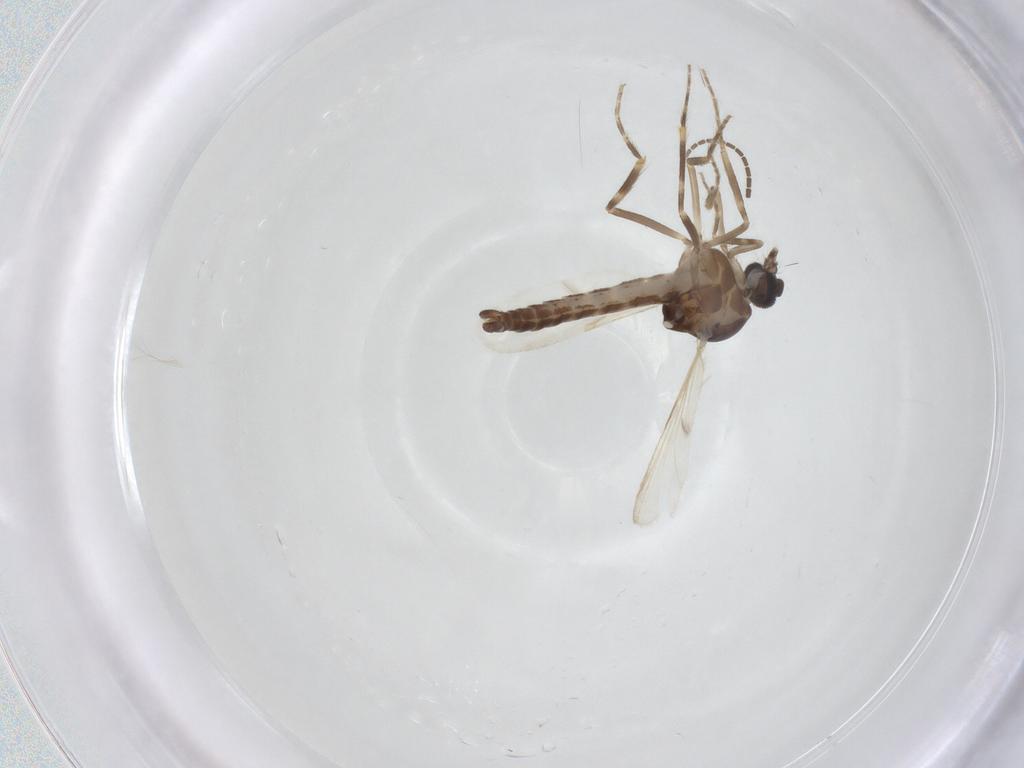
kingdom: Animalia
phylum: Arthropoda
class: Insecta
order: Diptera
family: Ceratopogonidae
